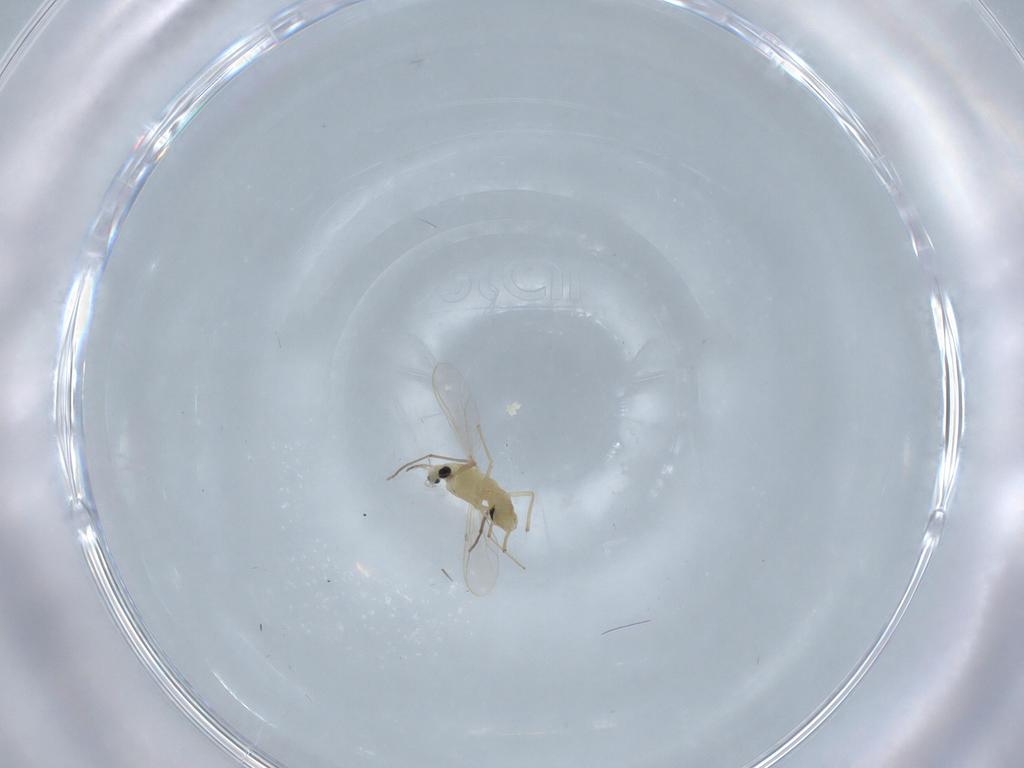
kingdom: Animalia
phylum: Arthropoda
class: Insecta
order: Diptera
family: Chironomidae
